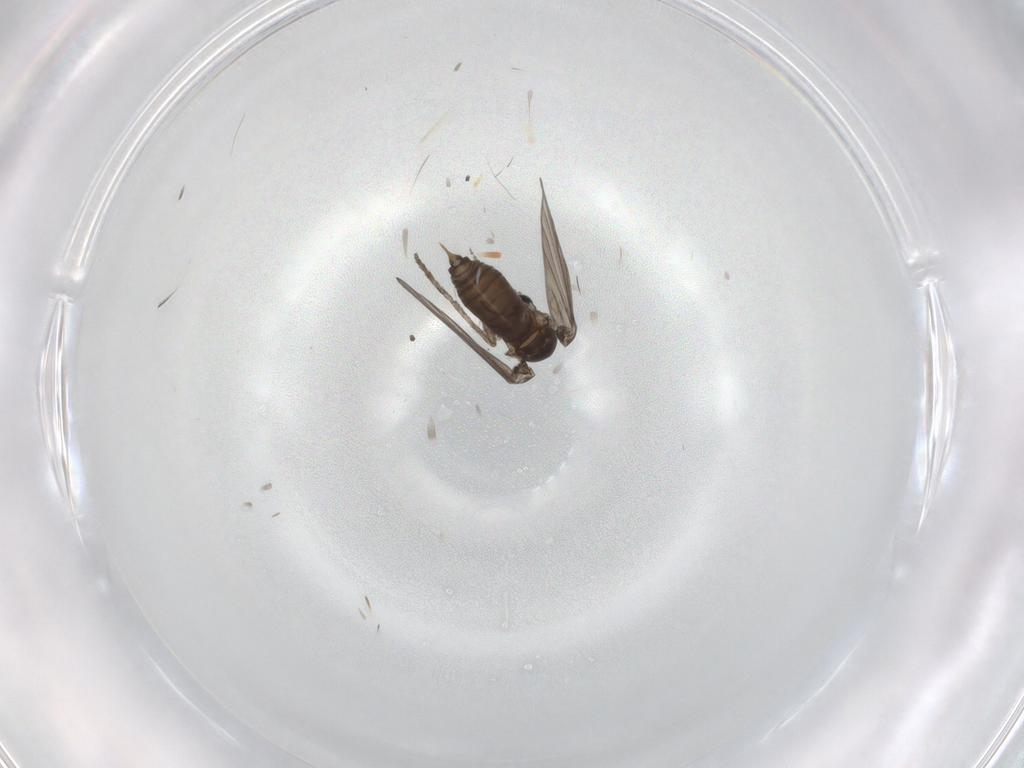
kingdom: Animalia
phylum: Arthropoda
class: Insecta
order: Diptera
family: Psychodidae
